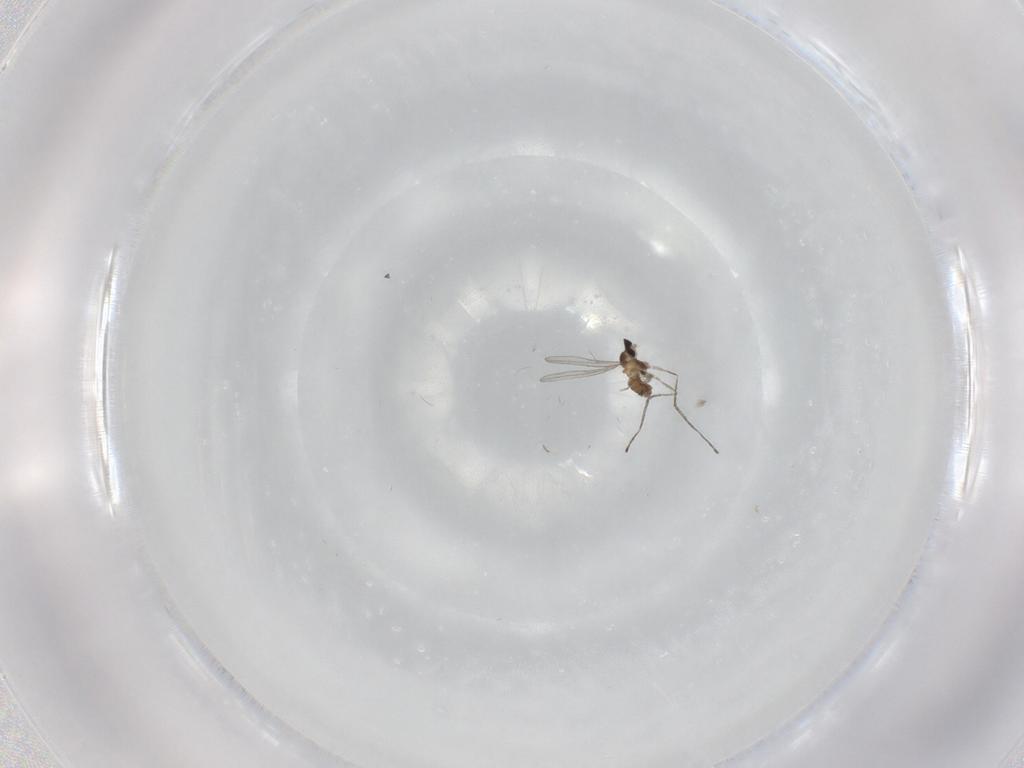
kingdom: Animalia
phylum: Arthropoda
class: Insecta
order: Diptera
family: Cecidomyiidae
